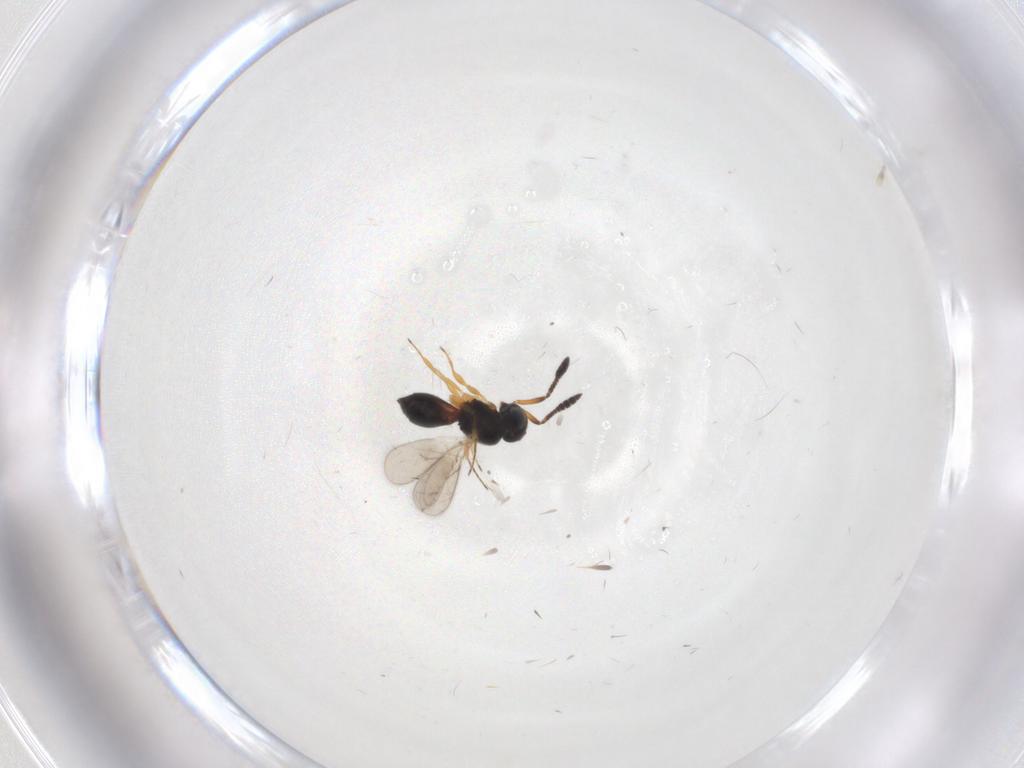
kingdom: Animalia
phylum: Arthropoda
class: Insecta
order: Hymenoptera
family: Scelionidae
